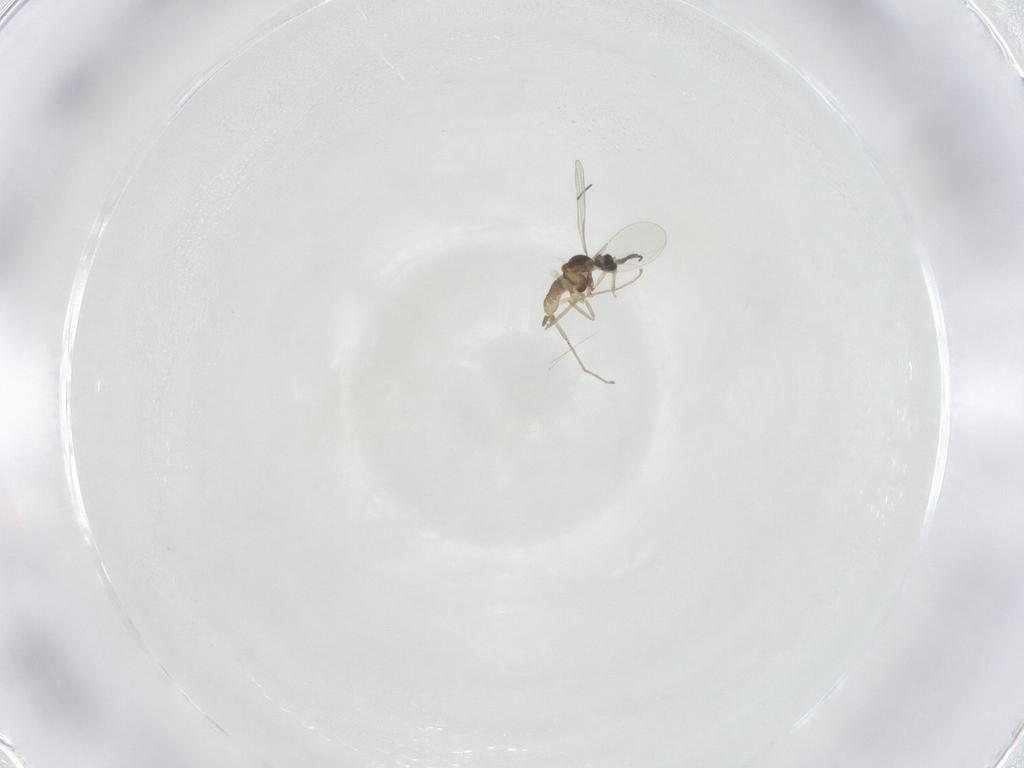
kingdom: Animalia
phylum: Arthropoda
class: Insecta
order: Diptera
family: Cecidomyiidae
